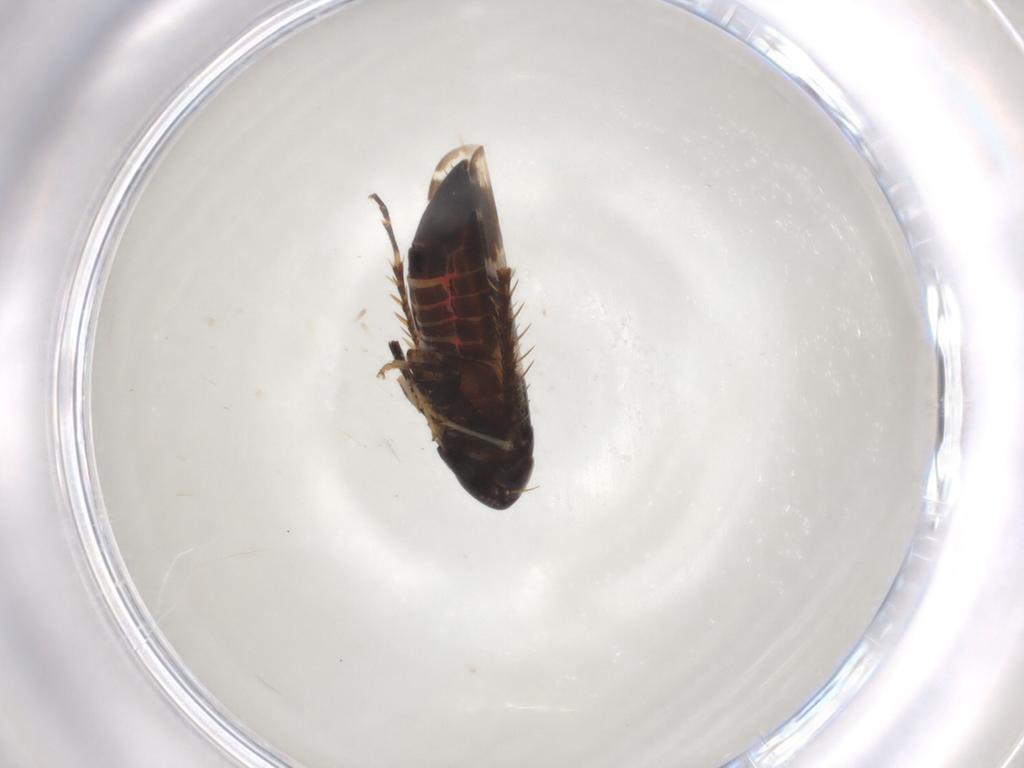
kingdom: Animalia
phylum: Arthropoda
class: Insecta
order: Hemiptera
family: Cicadellidae
